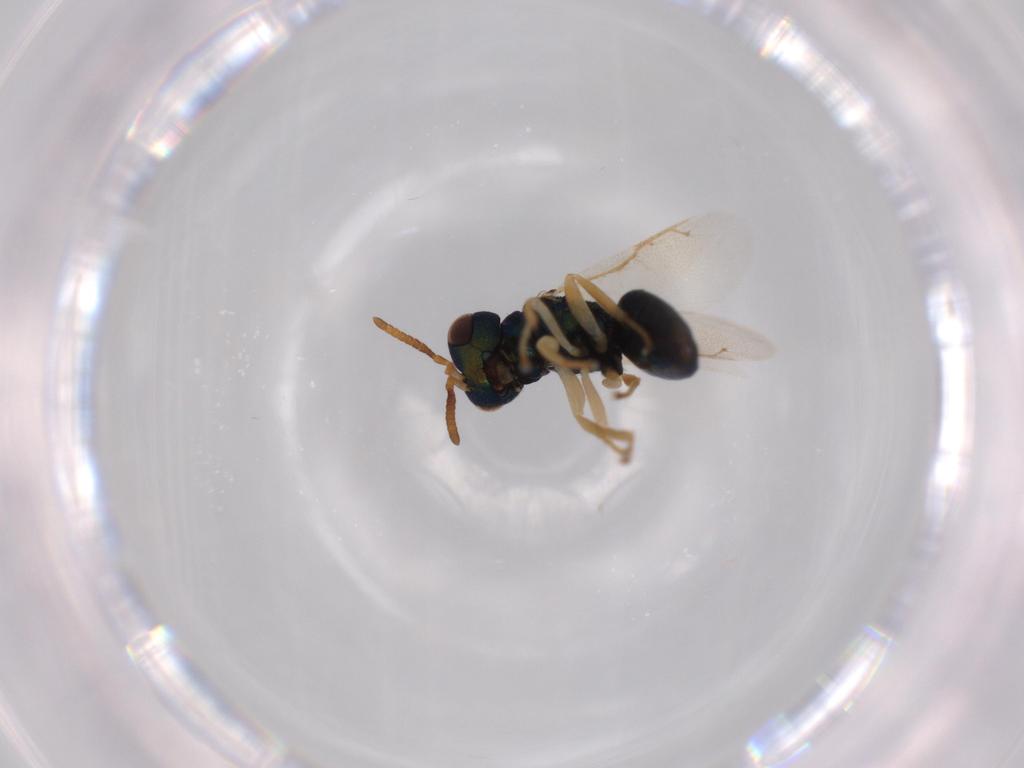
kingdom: Animalia
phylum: Arthropoda
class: Insecta
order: Hymenoptera
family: Pteromalidae
